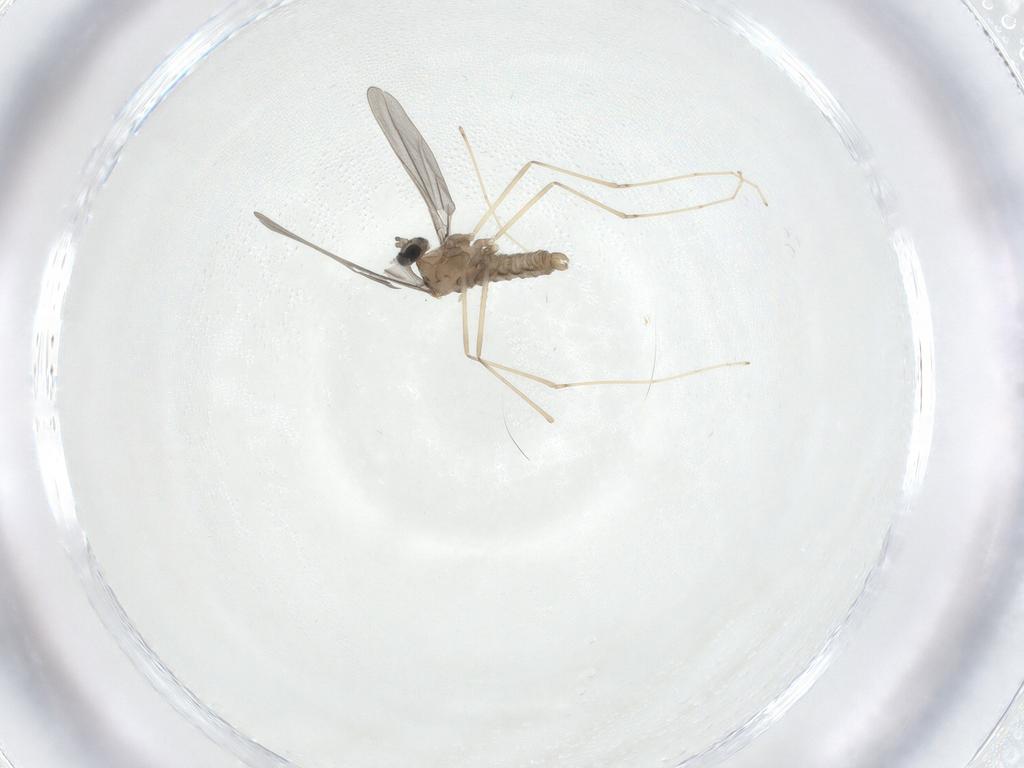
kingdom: Animalia
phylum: Arthropoda
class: Insecta
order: Diptera
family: Cecidomyiidae
